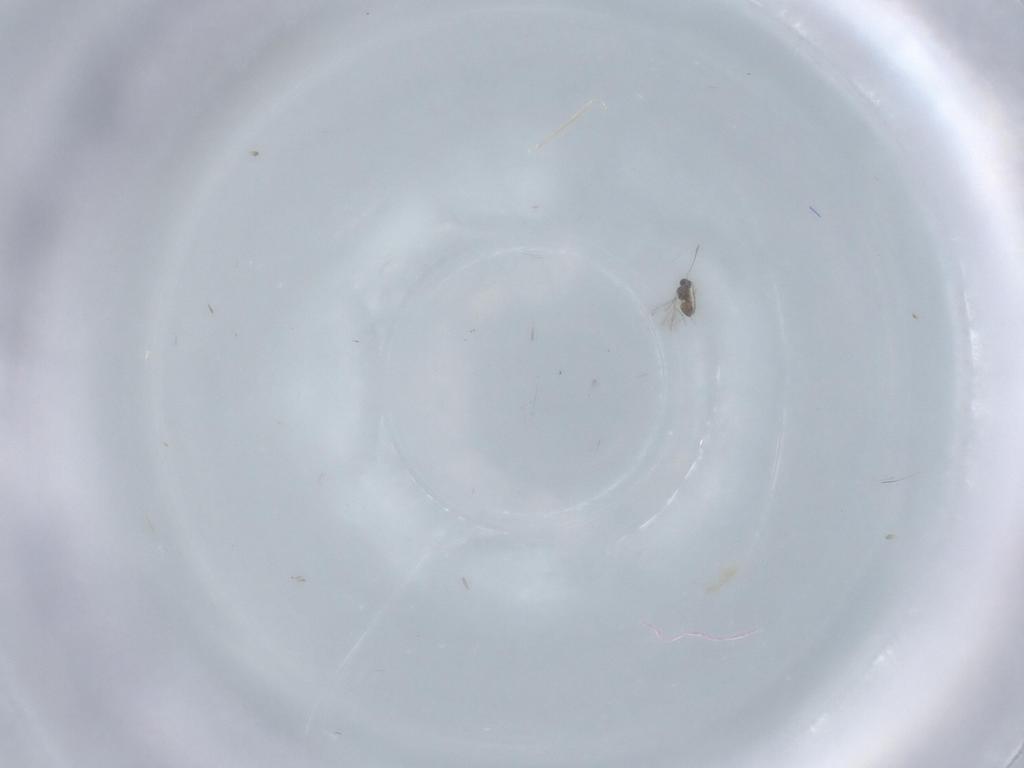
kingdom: Animalia
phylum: Arthropoda
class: Insecta
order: Hymenoptera
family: Mymaridae
